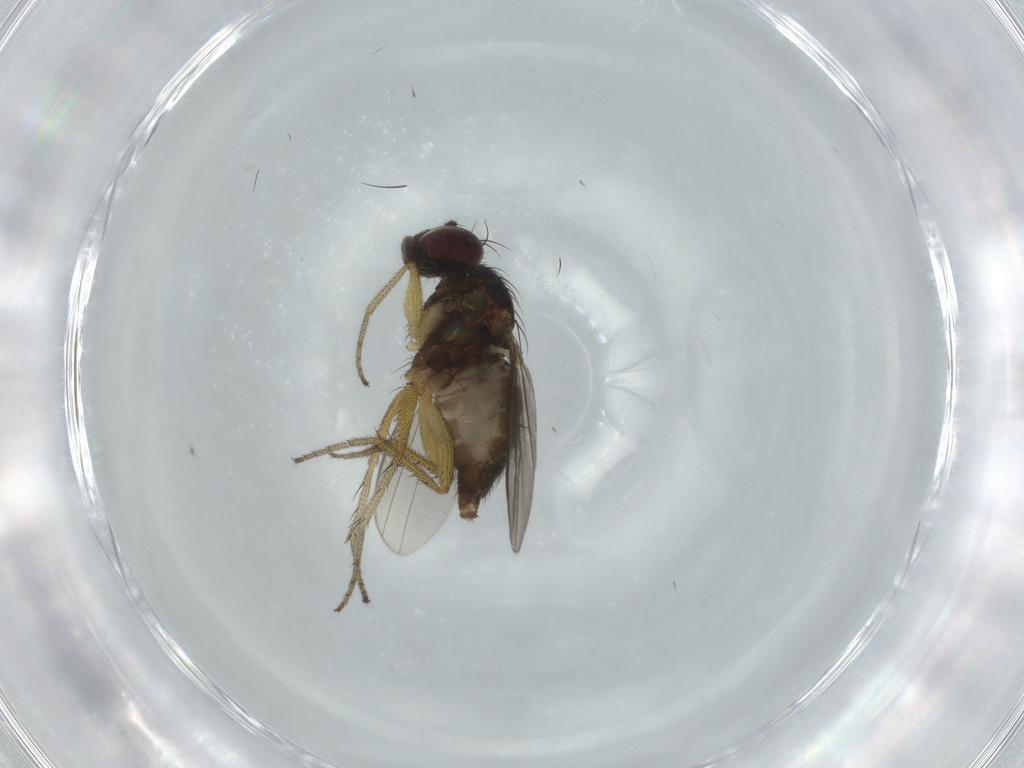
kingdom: Animalia
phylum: Arthropoda
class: Insecta
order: Diptera
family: Dolichopodidae
